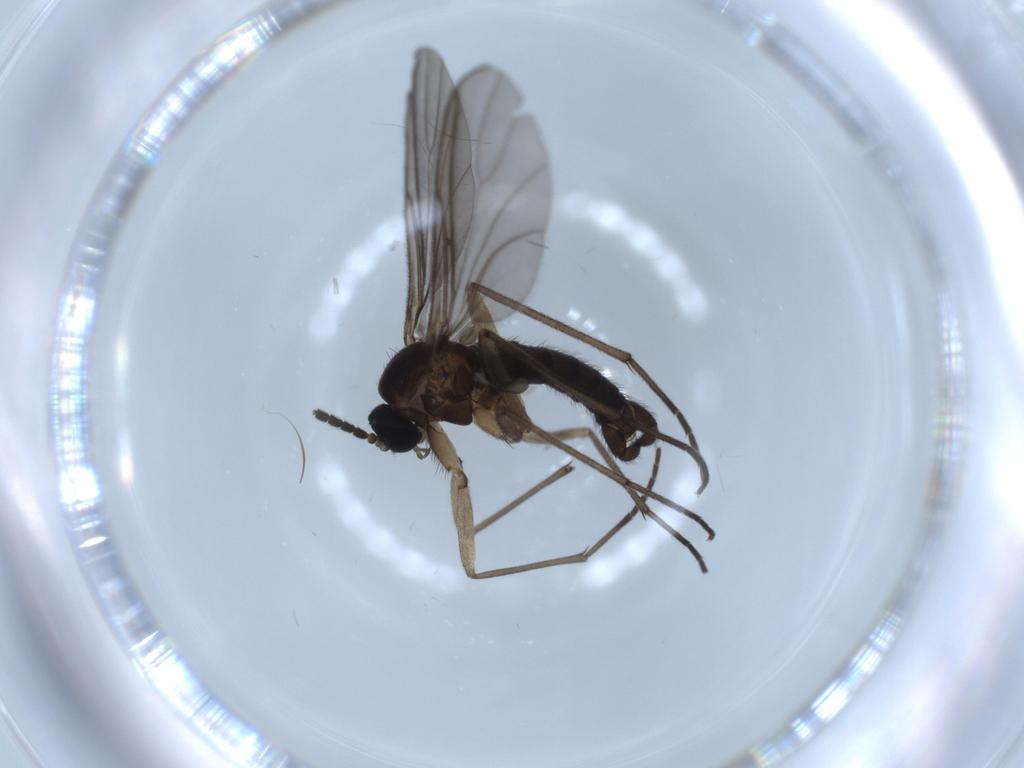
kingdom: Animalia
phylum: Arthropoda
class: Insecta
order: Diptera
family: Sciaridae
